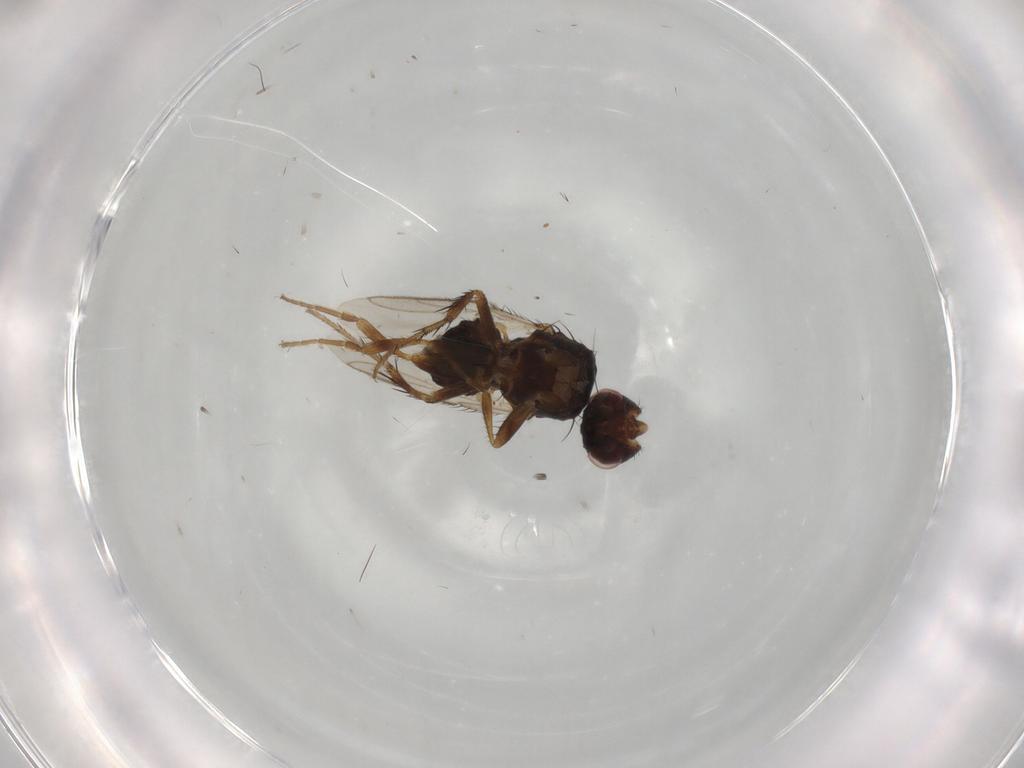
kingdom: Animalia
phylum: Arthropoda
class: Insecta
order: Diptera
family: Sphaeroceridae
